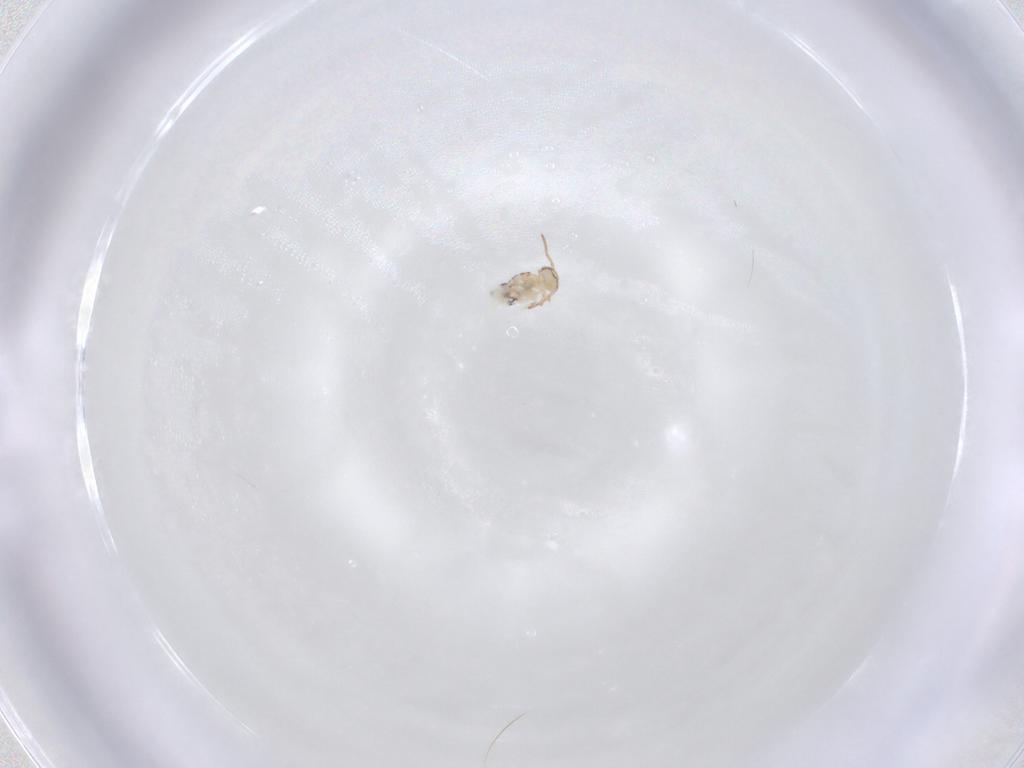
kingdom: Animalia
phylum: Arthropoda
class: Collembola
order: Symphypleona
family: Bourletiellidae
